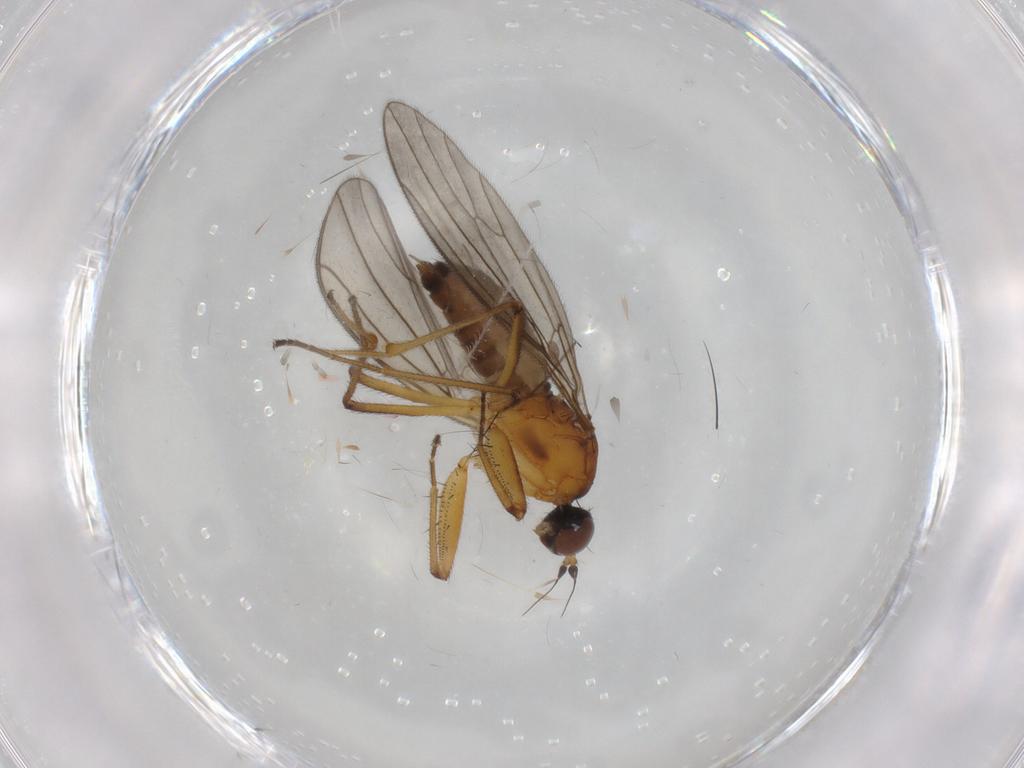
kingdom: Animalia
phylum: Arthropoda
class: Insecta
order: Diptera
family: Empididae
